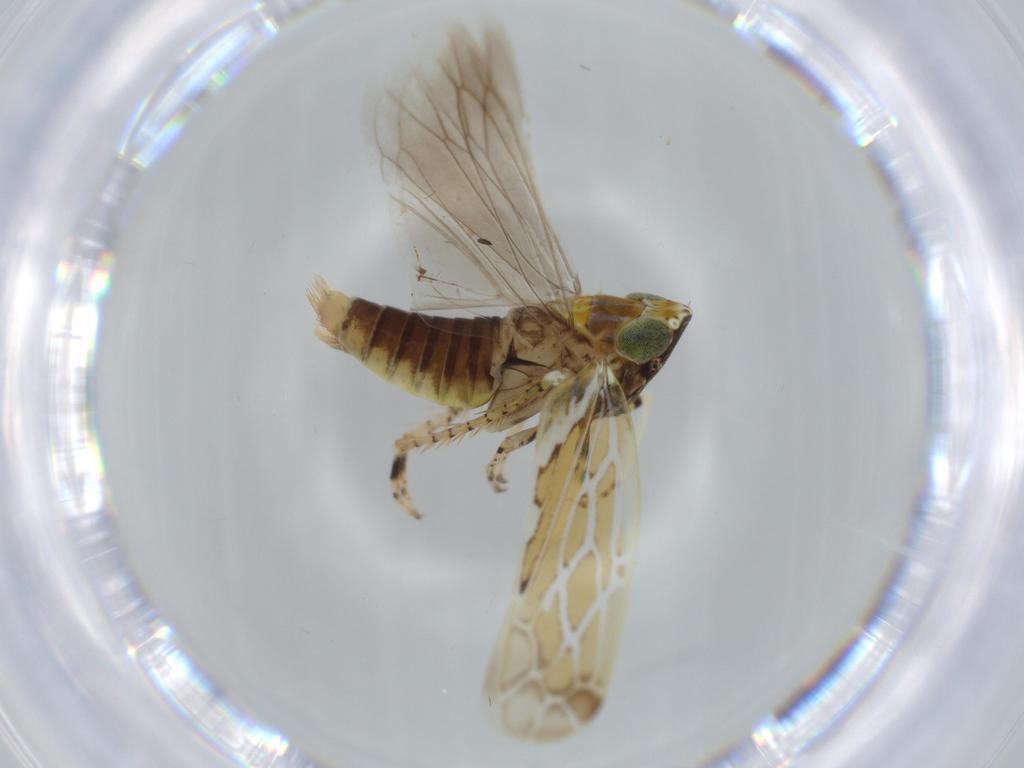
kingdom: Animalia
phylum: Arthropoda
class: Insecta
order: Hemiptera
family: Cicadellidae
